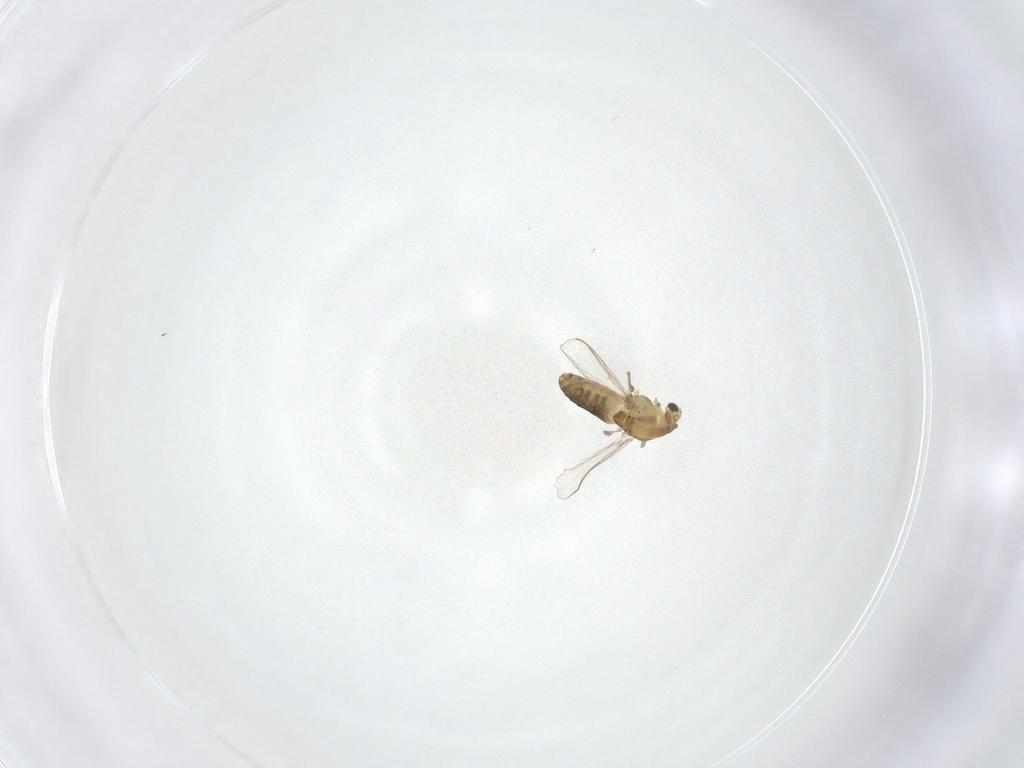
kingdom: Animalia
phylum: Arthropoda
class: Insecta
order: Diptera
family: Chironomidae
